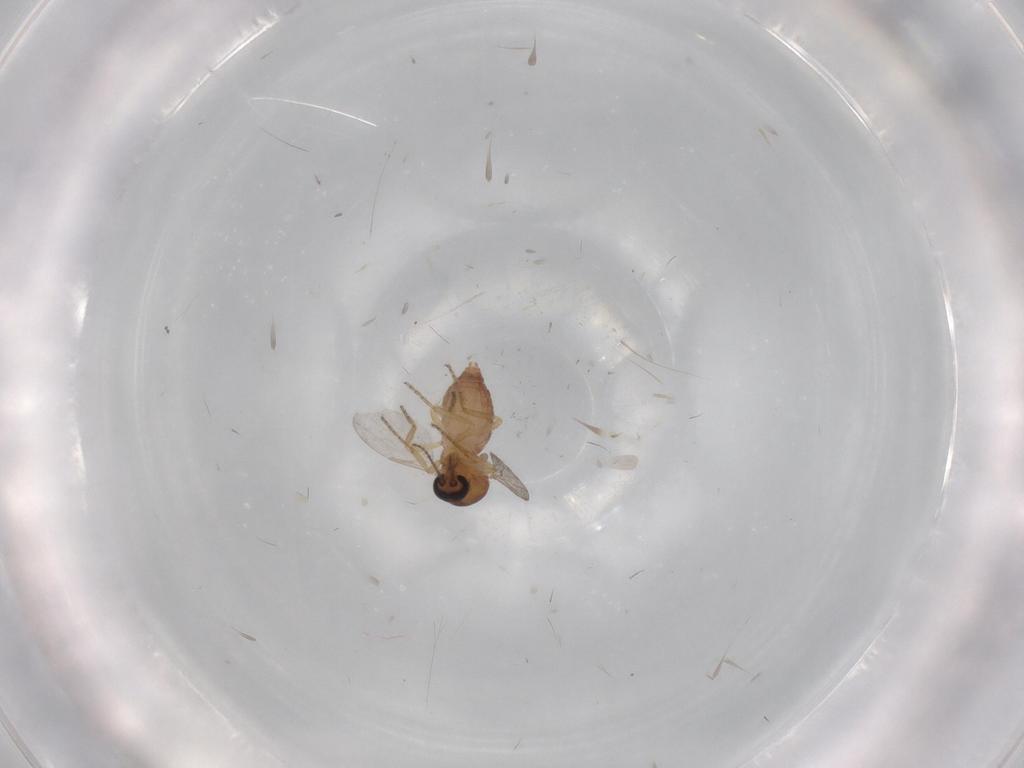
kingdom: Animalia
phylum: Arthropoda
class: Insecta
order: Diptera
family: Ceratopogonidae
